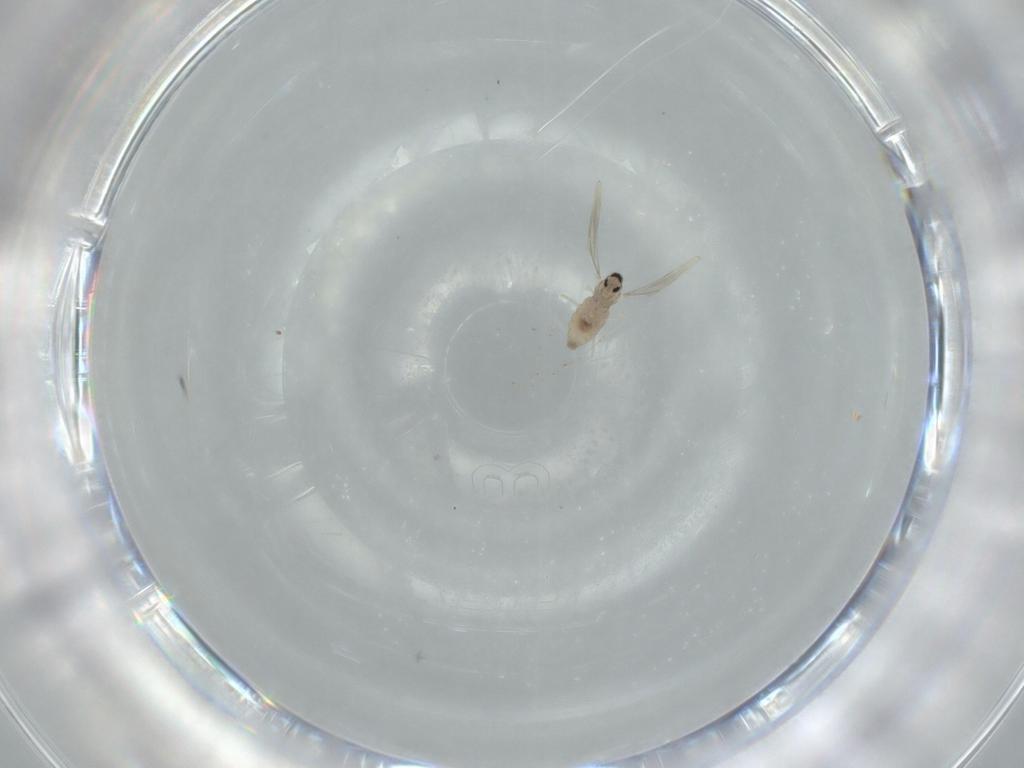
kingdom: Animalia
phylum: Arthropoda
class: Insecta
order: Diptera
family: Cecidomyiidae
